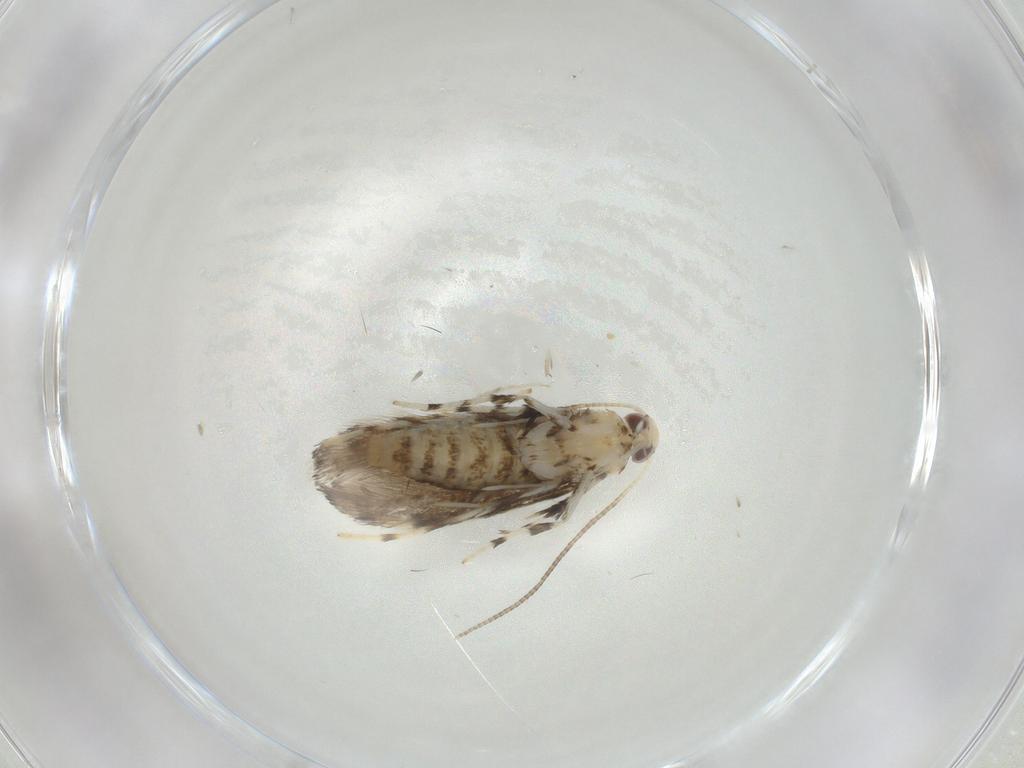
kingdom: Animalia
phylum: Arthropoda
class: Insecta
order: Lepidoptera
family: Gracillariidae
